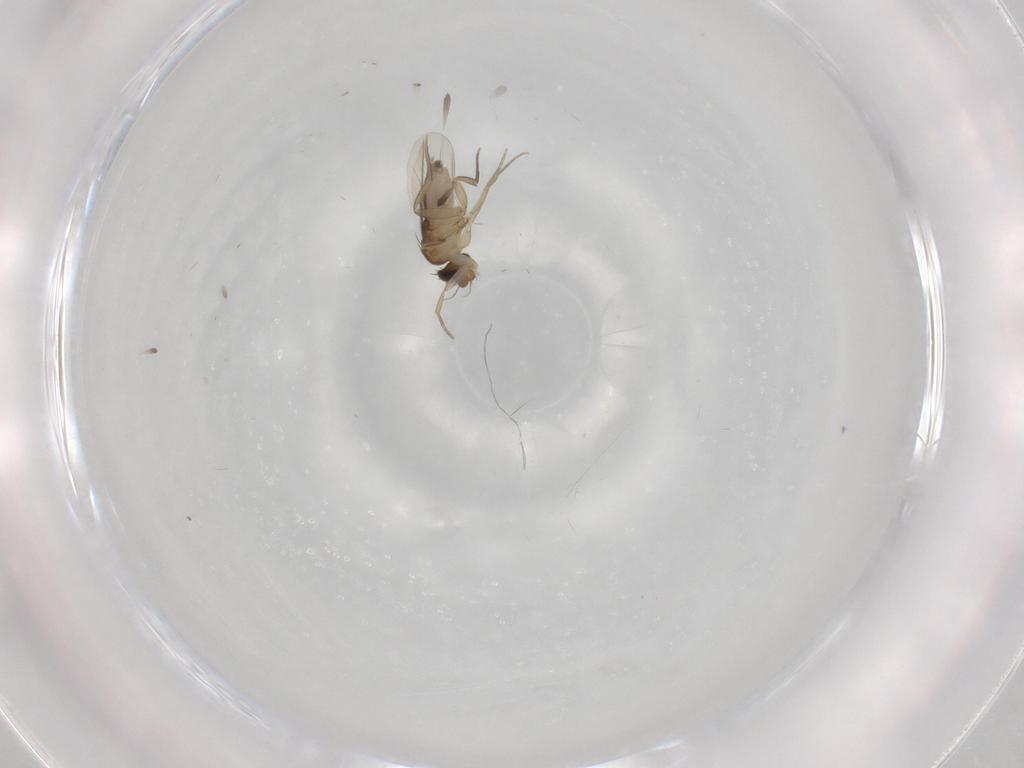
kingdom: Animalia
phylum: Arthropoda
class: Insecta
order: Diptera
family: Phoridae
